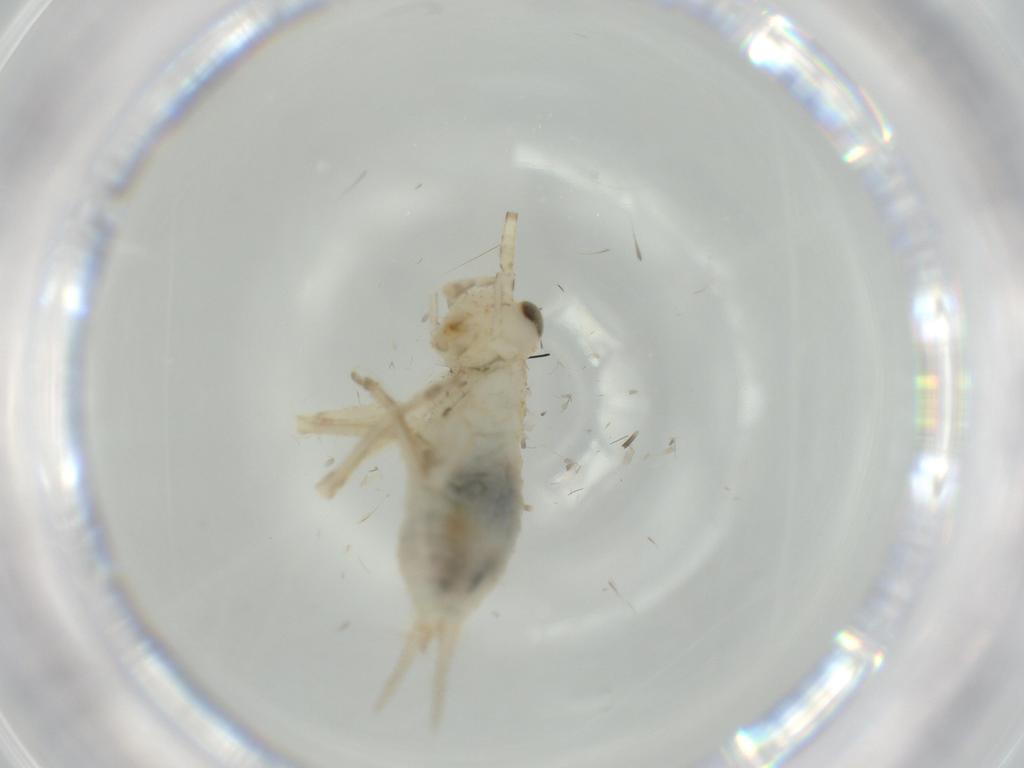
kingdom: Animalia
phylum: Arthropoda
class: Insecta
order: Orthoptera
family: Trigonidiidae
